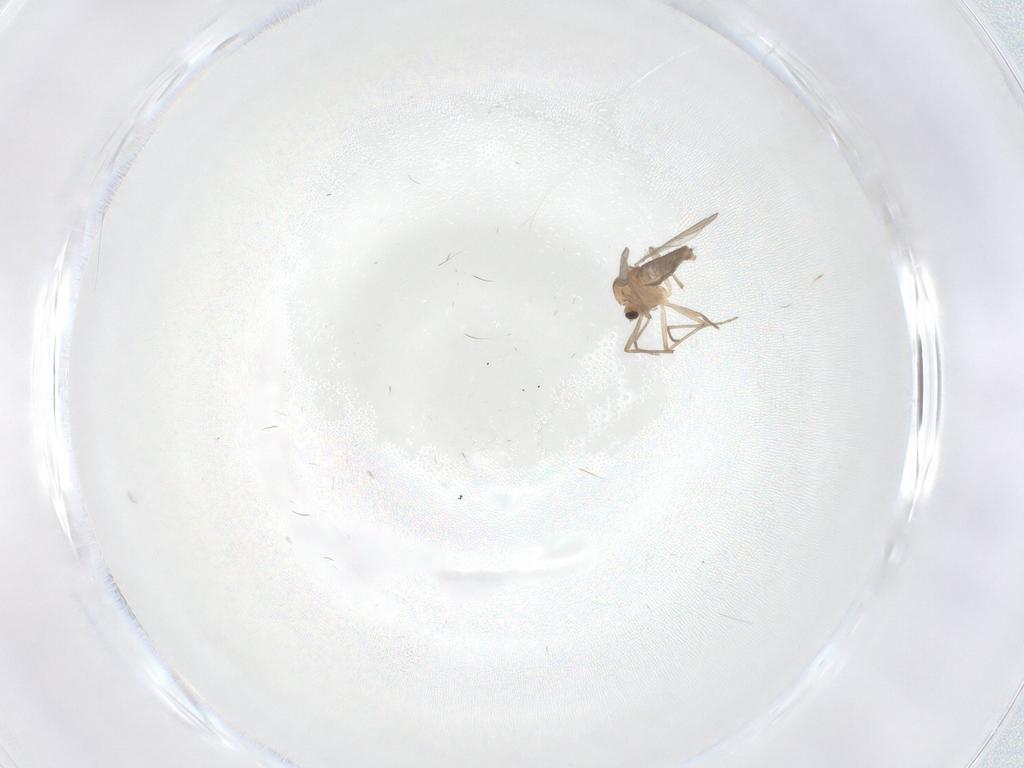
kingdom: Animalia
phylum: Arthropoda
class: Insecta
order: Diptera
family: Chironomidae
